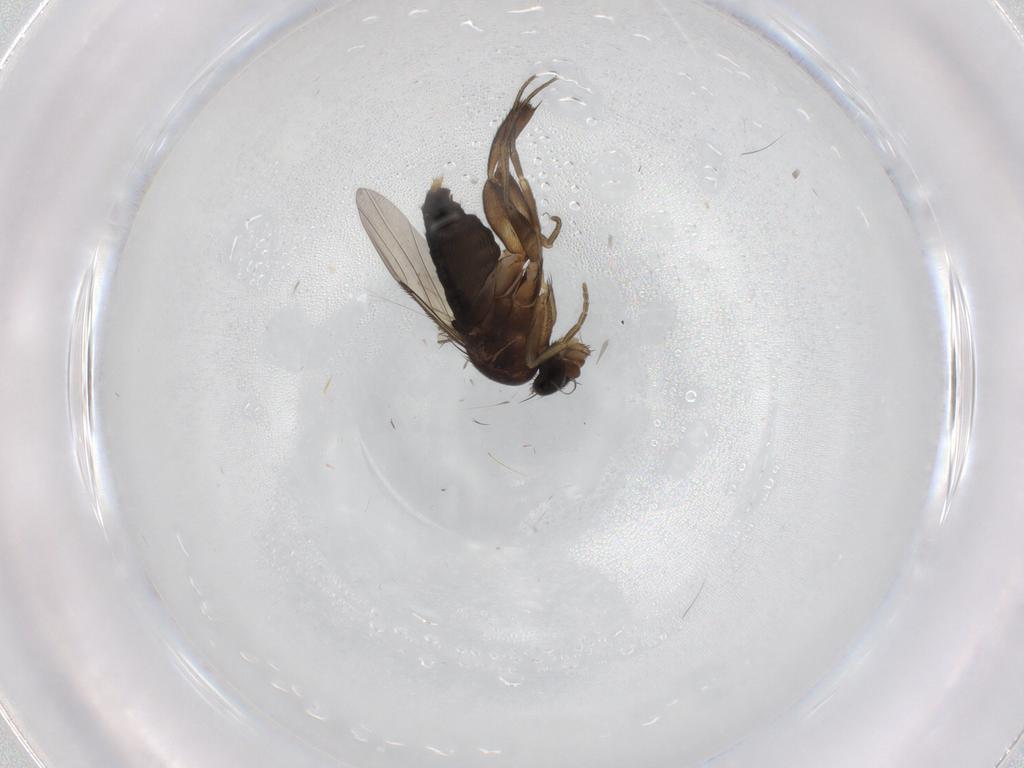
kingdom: Animalia
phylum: Arthropoda
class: Insecta
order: Diptera
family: Phoridae
